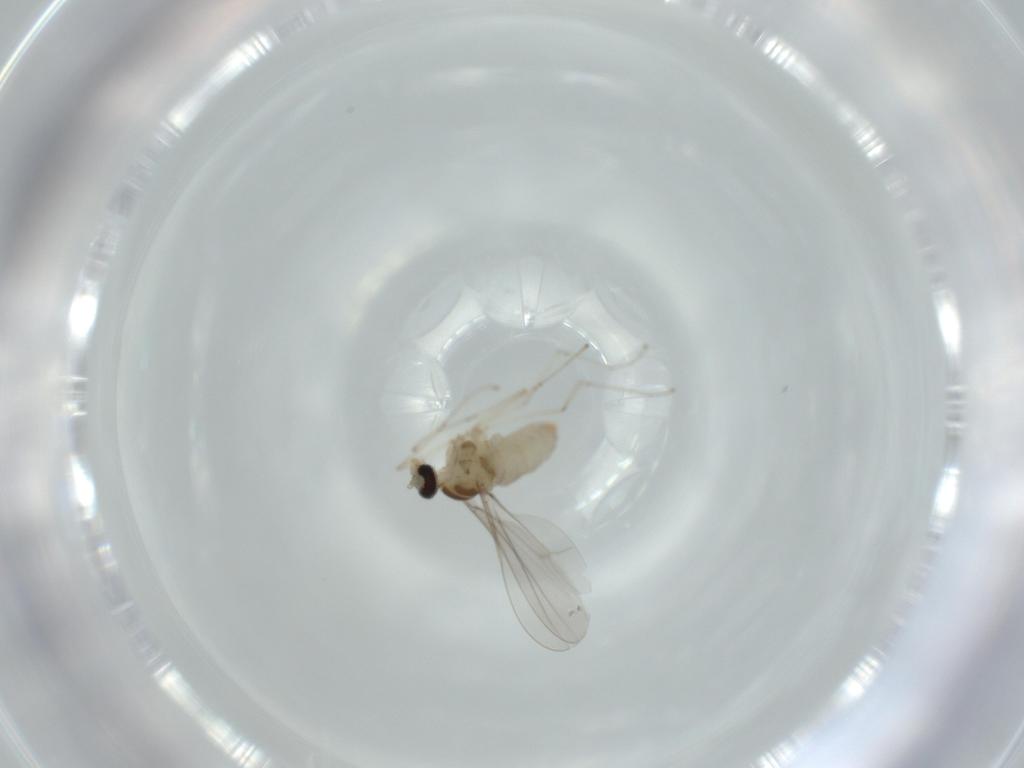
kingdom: Animalia
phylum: Arthropoda
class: Insecta
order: Diptera
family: Cecidomyiidae
